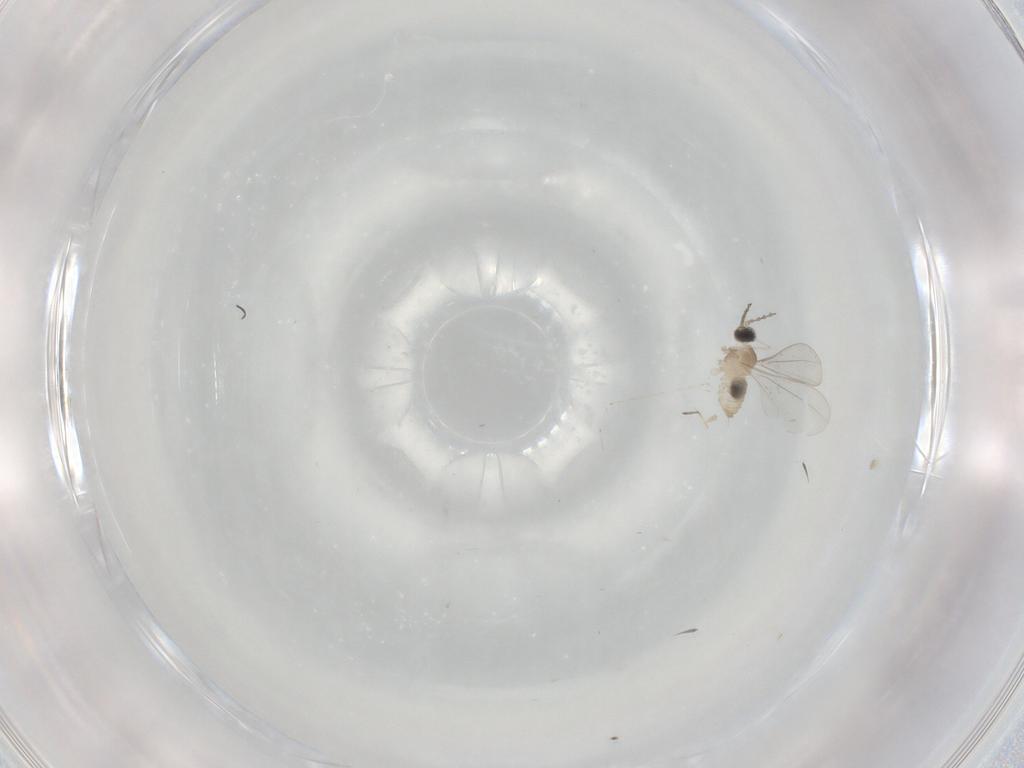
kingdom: Animalia
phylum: Arthropoda
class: Insecta
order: Diptera
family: Cecidomyiidae
